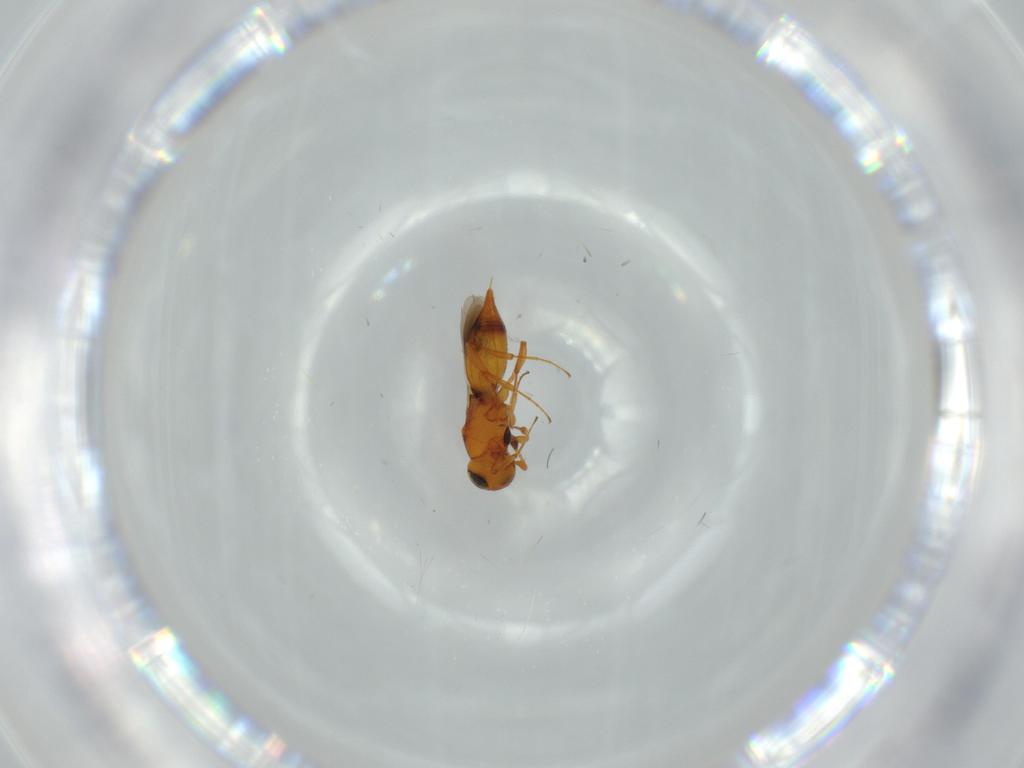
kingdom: Animalia
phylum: Arthropoda
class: Insecta
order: Hymenoptera
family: Platygastridae
